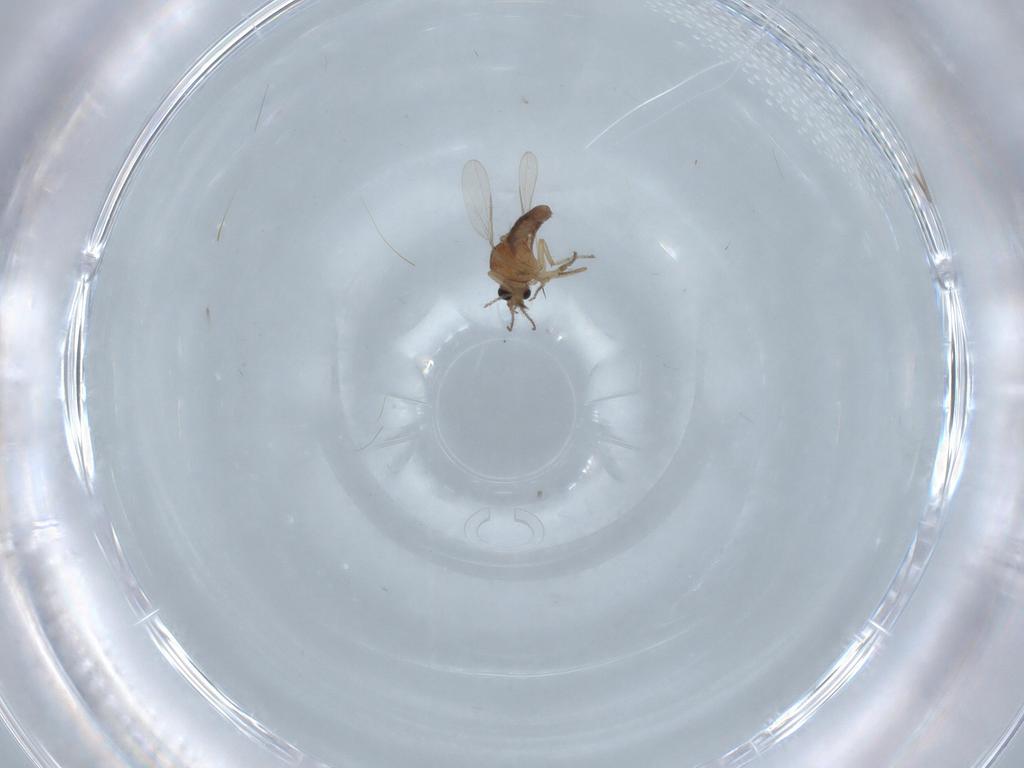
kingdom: Animalia
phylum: Arthropoda
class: Insecta
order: Diptera
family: Ceratopogonidae
